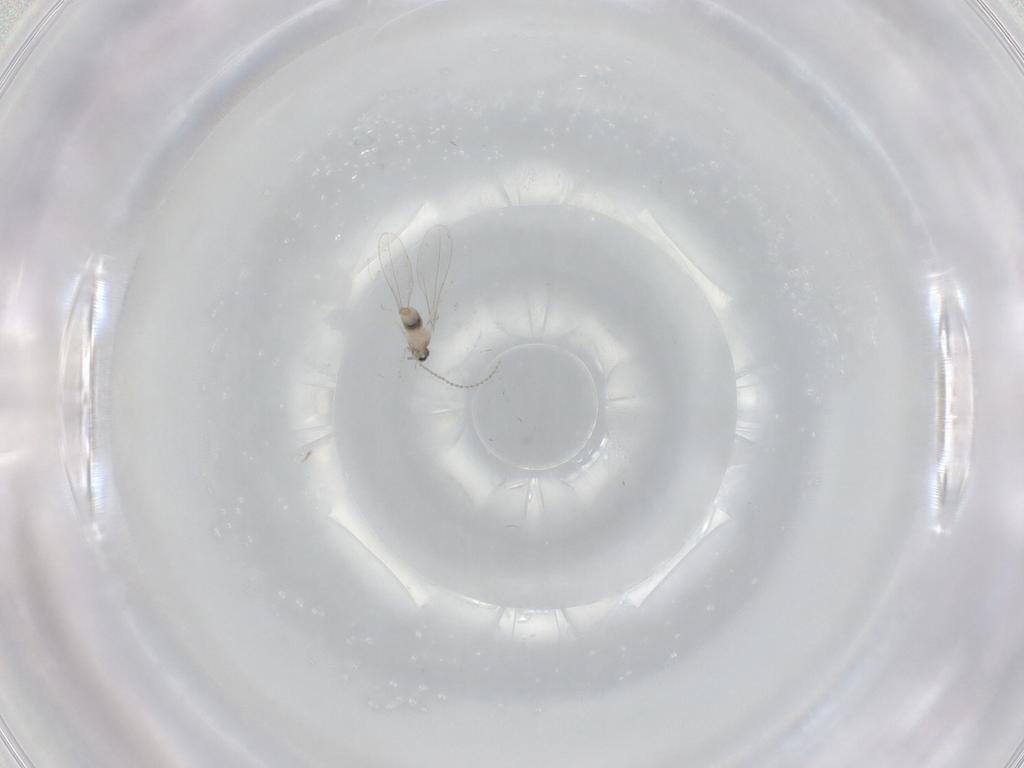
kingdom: Animalia
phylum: Arthropoda
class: Insecta
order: Diptera
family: Cecidomyiidae
